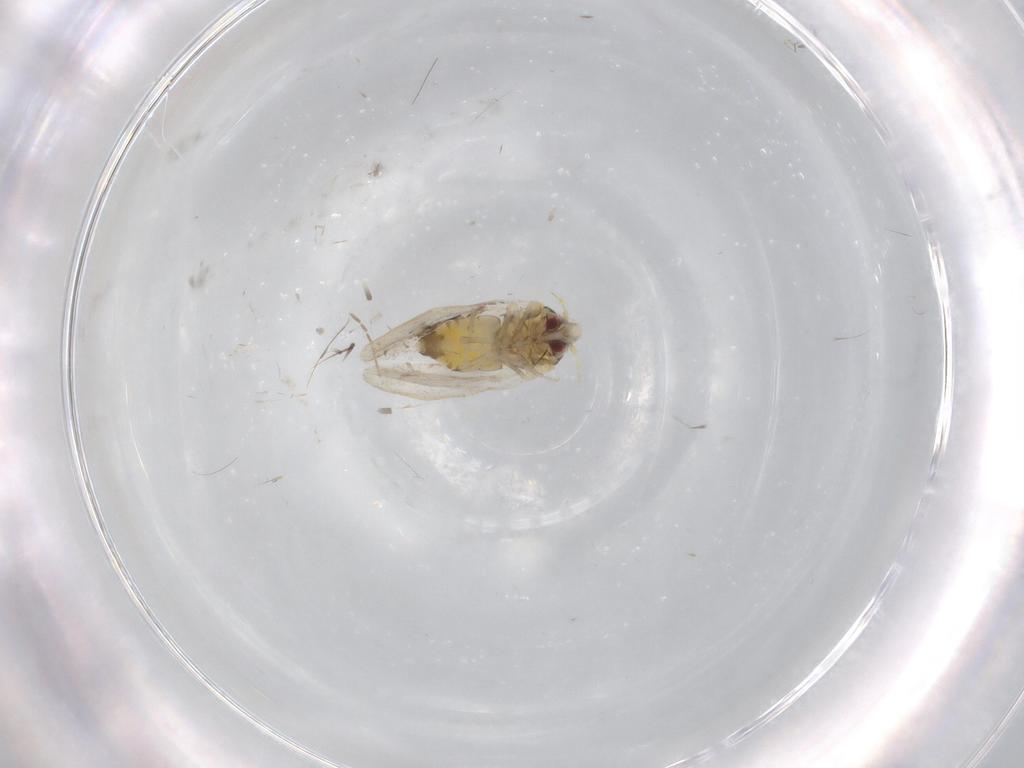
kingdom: Animalia
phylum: Arthropoda
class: Insecta
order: Hemiptera
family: Aleyrodidae
